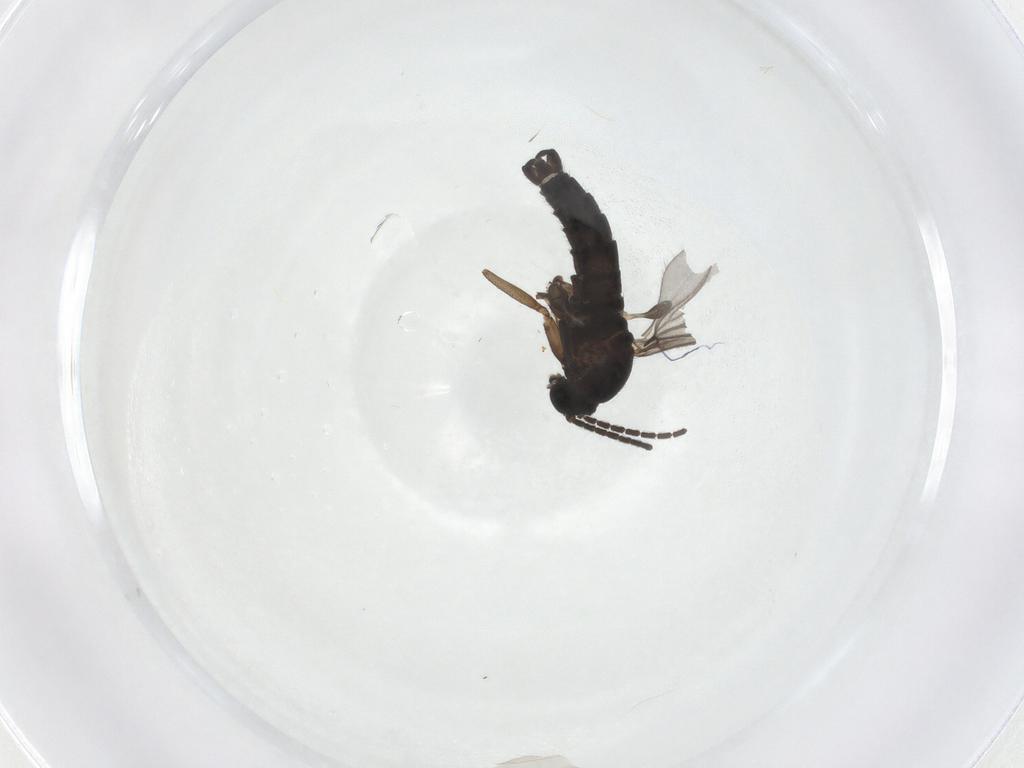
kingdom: Animalia
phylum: Arthropoda
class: Insecta
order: Diptera
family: Sciaridae
